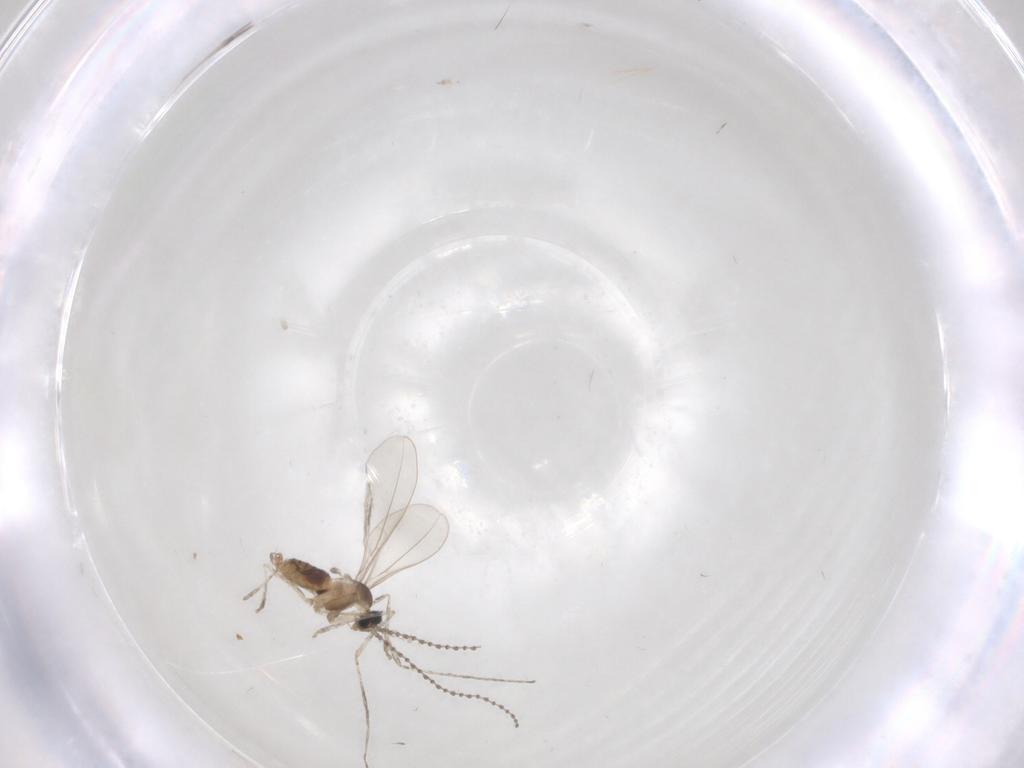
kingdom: Animalia
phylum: Arthropoda
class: Insecta
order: Diptera
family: Cecidomyiidae
